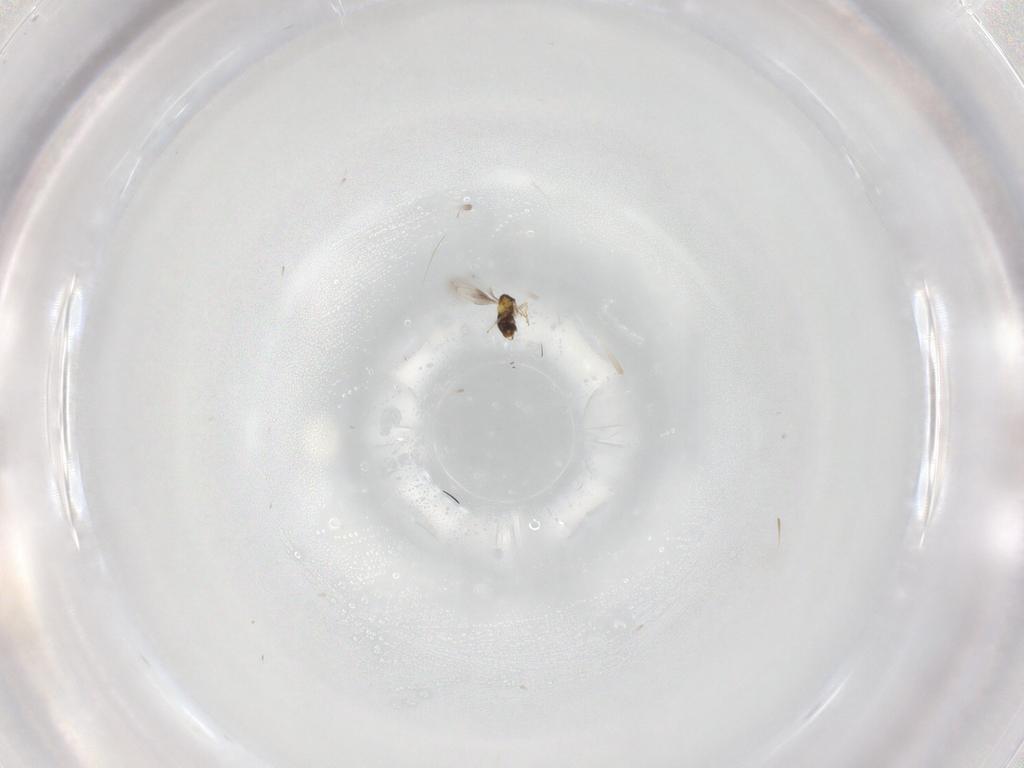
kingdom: Animalia
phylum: Arthropoda
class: Insecta
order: Hymenoptera
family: Aphelinidae
